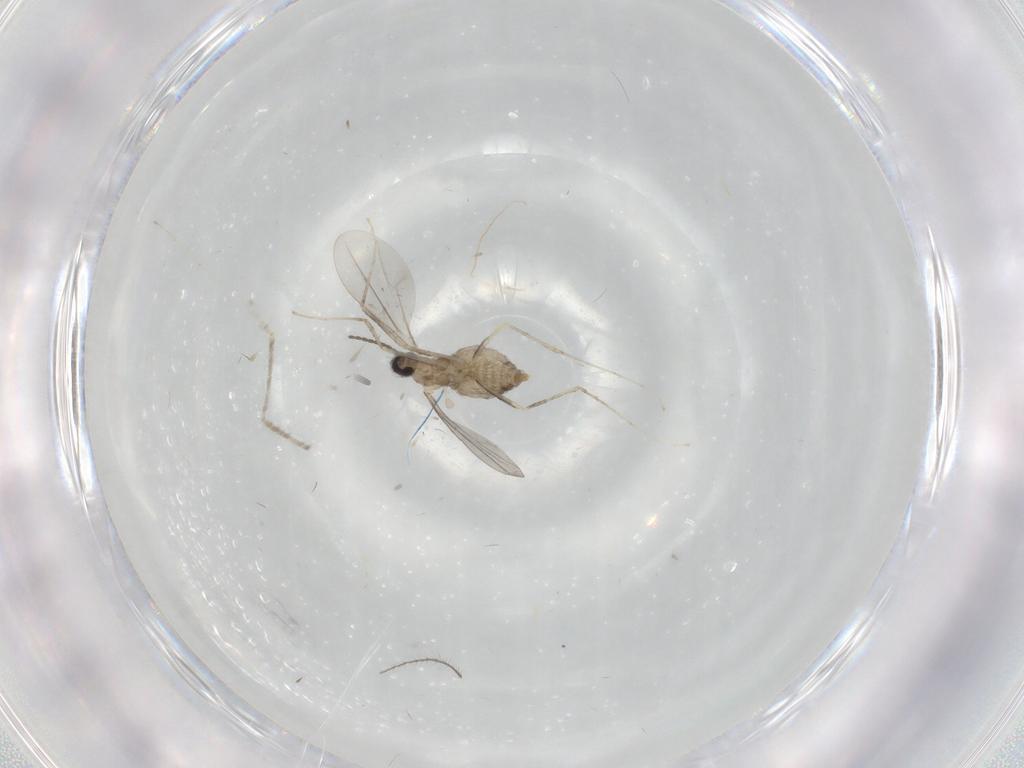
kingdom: Animalia
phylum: Arthropoda
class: Insecta
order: Diptera
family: Cecidomyiidae
